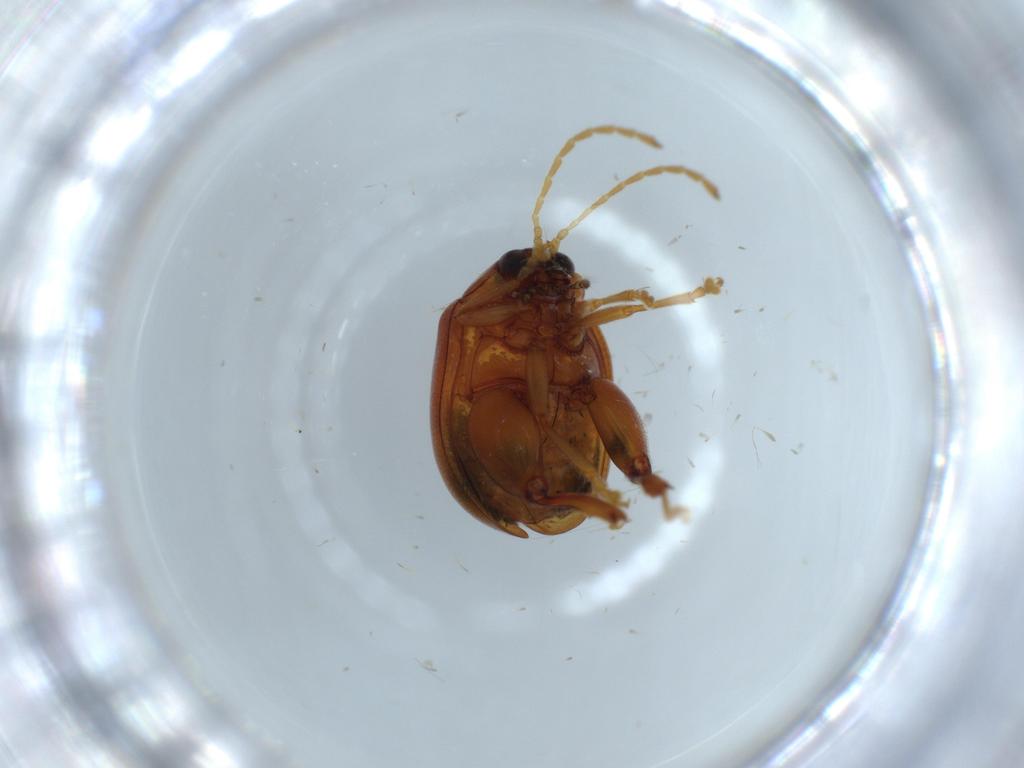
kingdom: Animalia
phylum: Arthropoda
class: Insecta
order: Coleoptera
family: Chrysomelidae
